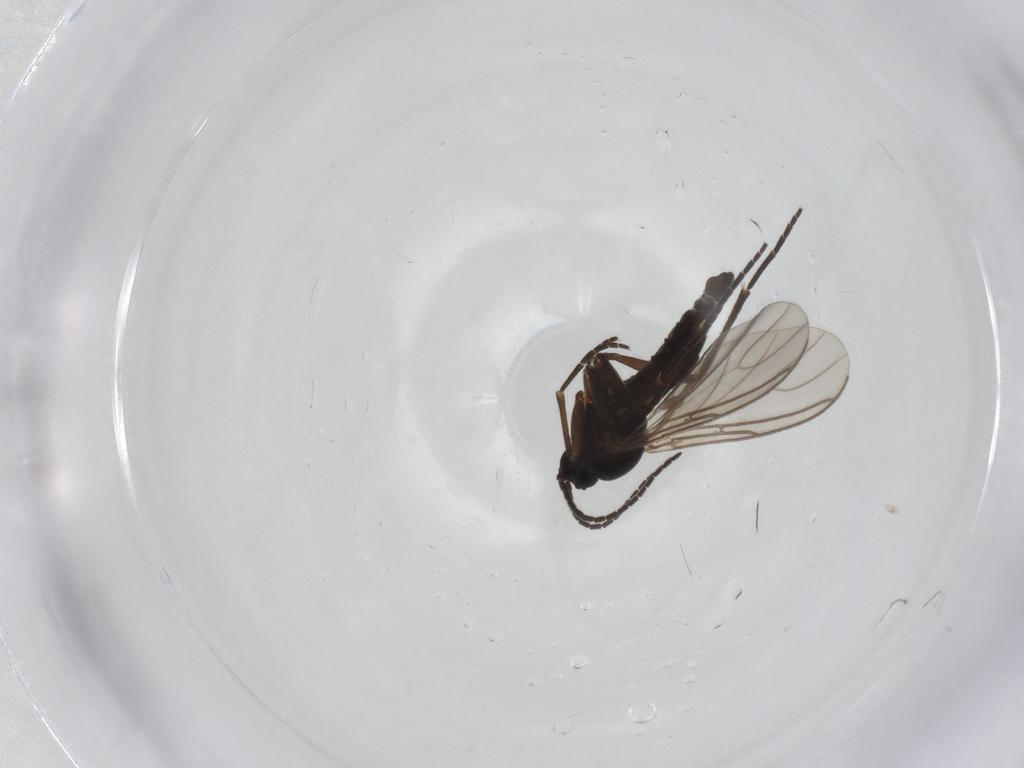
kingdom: Animalia
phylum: Arthropoda
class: Insecta
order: Diptera
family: Sciaridae
